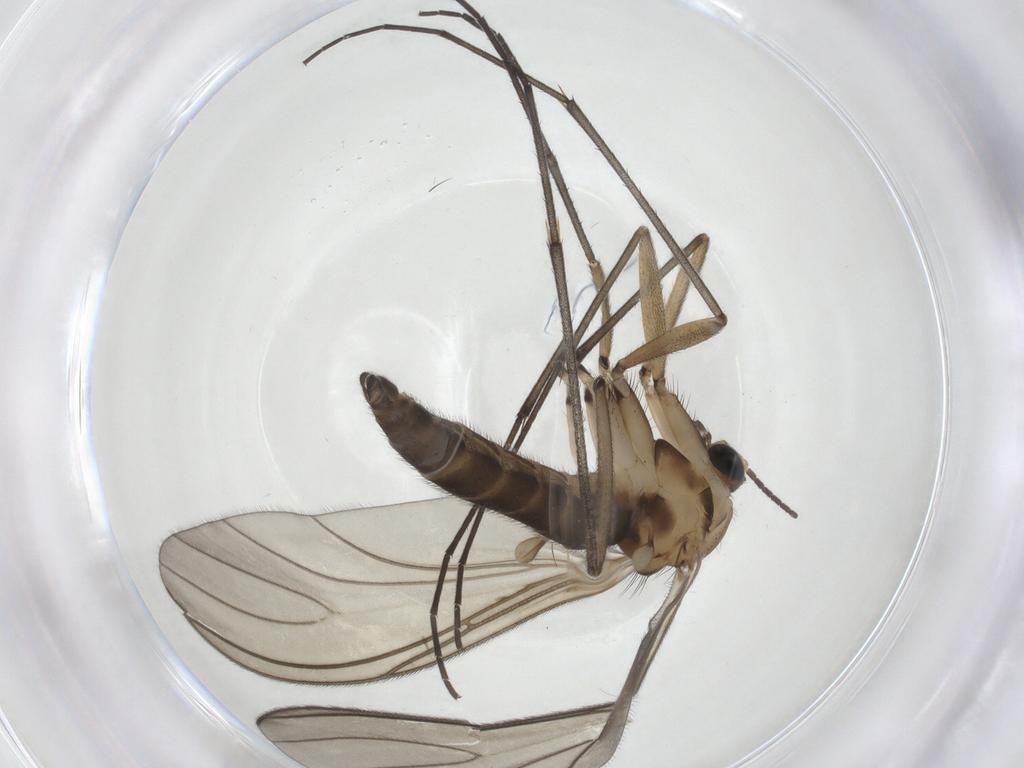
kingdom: Animalia
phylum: Arthropoda
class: Insecta
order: Diptera
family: Sciaridae
